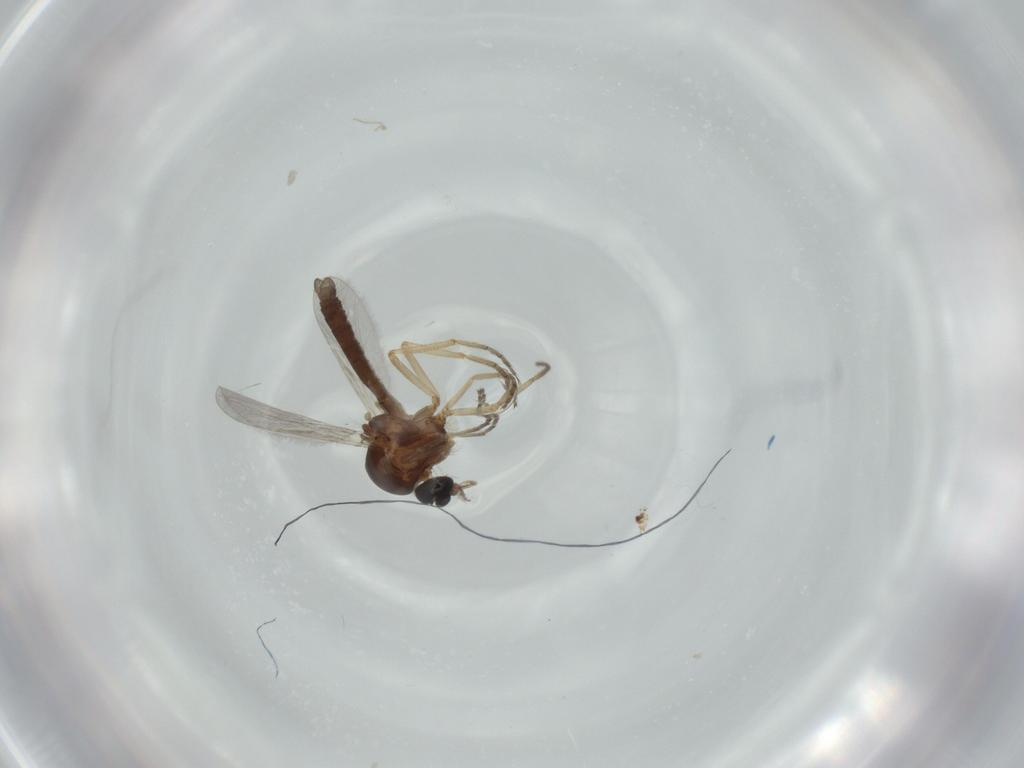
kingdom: Animalia
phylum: Arthropoda
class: Insecta
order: Diptera
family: Ceratopogonidae
